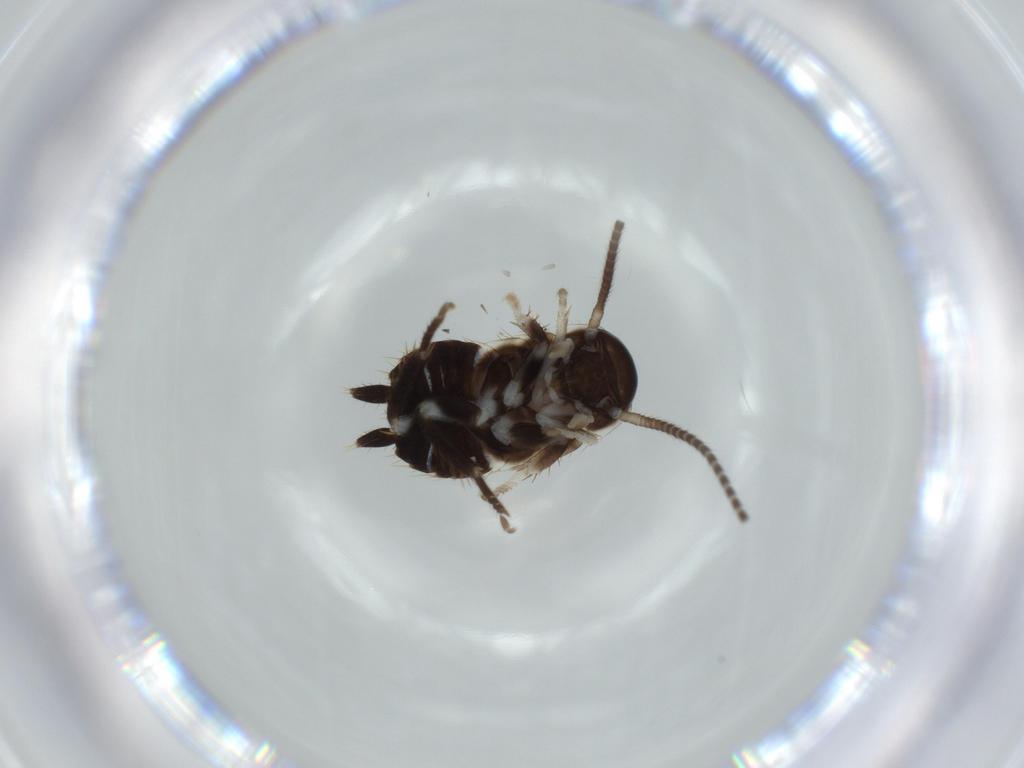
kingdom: Animalia
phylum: Arthropoda
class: Insecta
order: Blattodea
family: Ectobiidae
